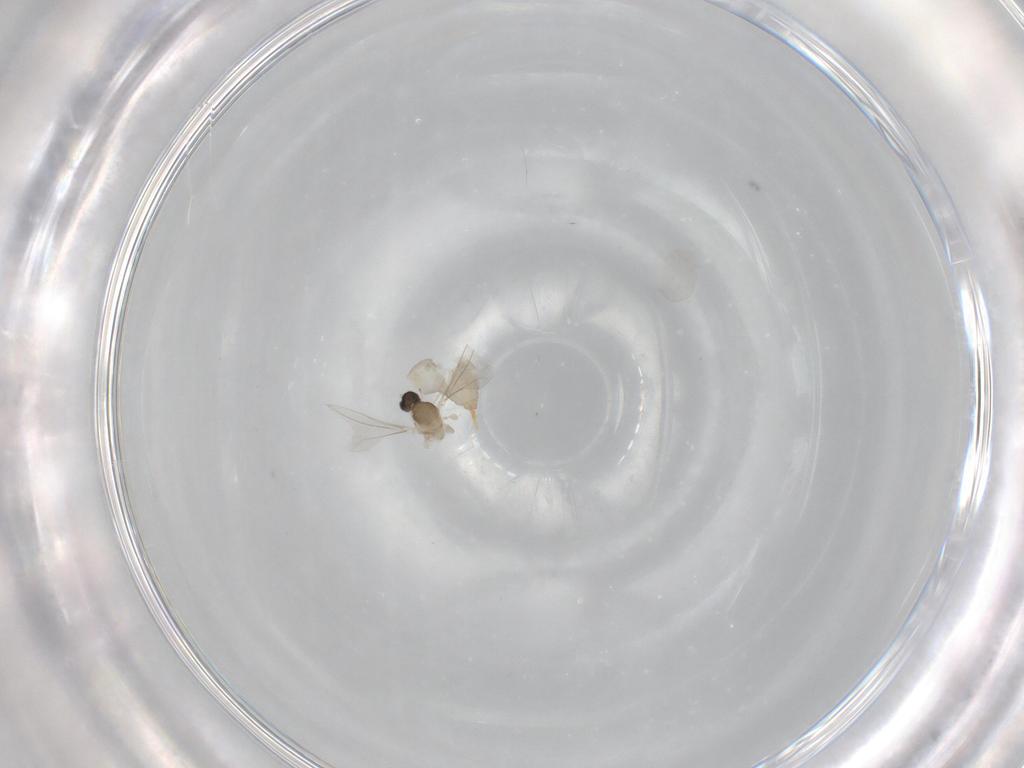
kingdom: Animalia
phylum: Arthropoda
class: Insecta
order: Diptera
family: Cecidomyiidae
